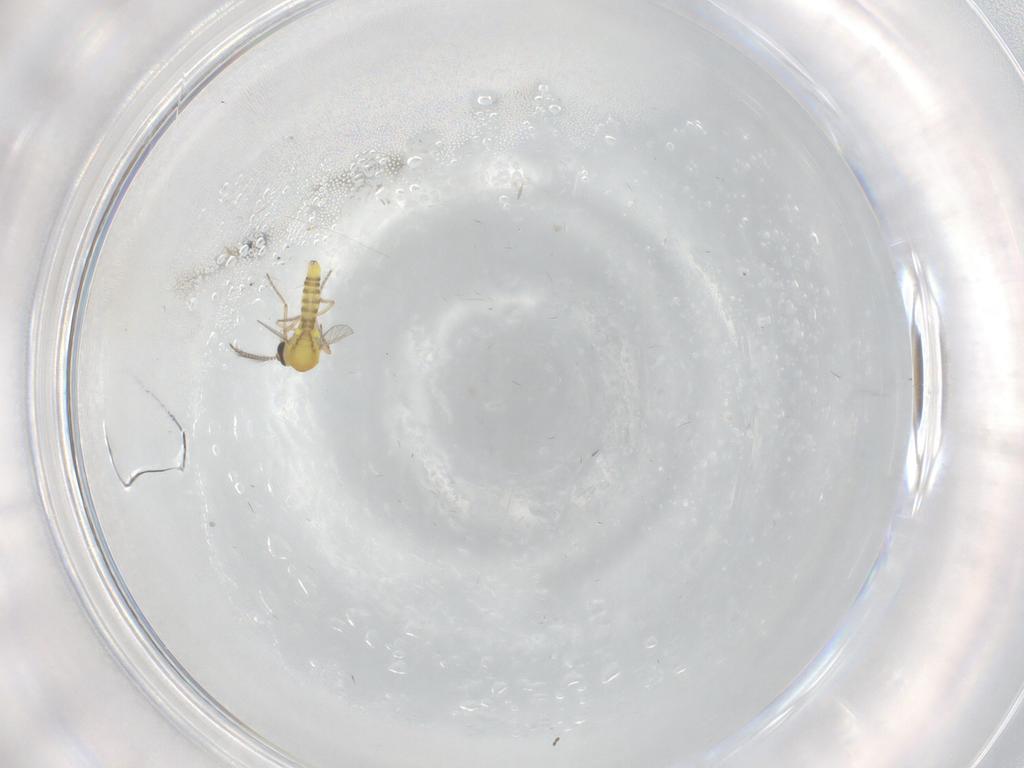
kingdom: Animalia
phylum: Arthropoda
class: Insecta
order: Diptera
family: Ceratopogonidae
